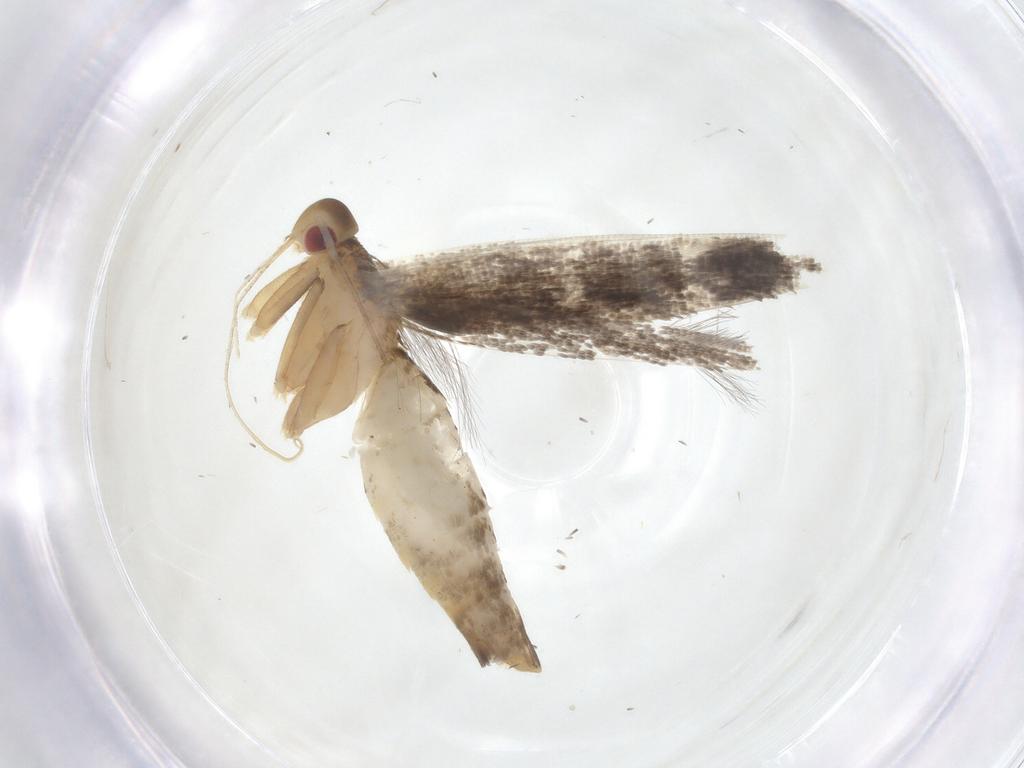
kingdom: Animalia
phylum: Arthropoda
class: Insecta
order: Lepidoptera
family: Cosmopterigidae
